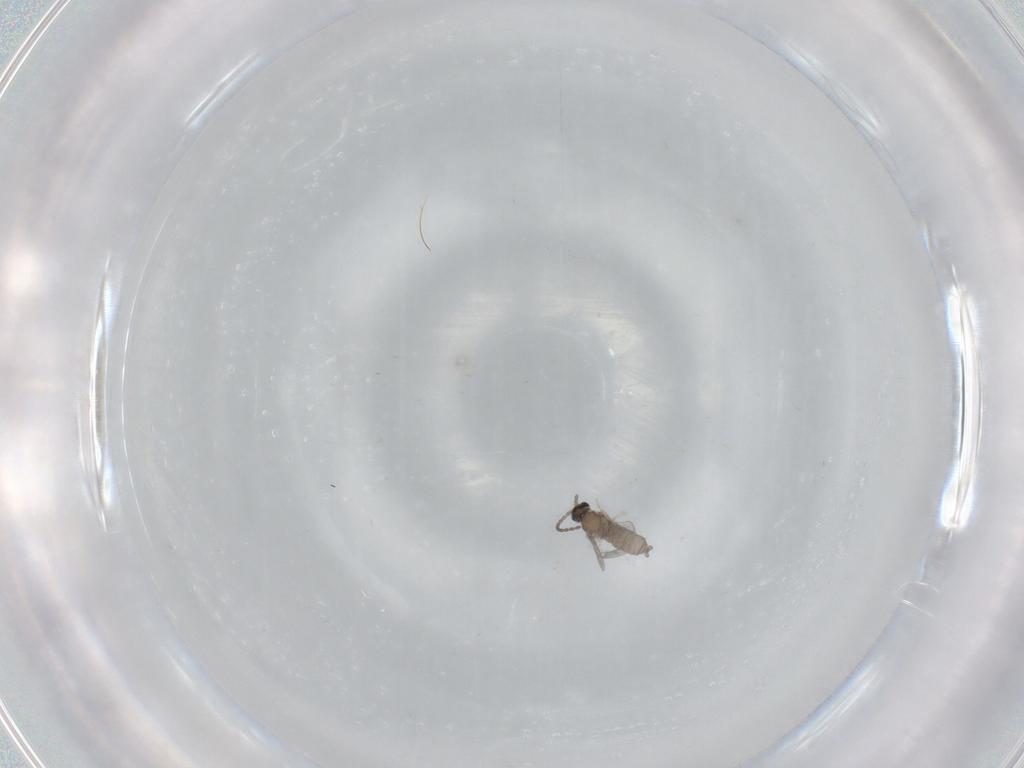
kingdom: Animalia
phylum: Arthropoda
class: Insecta
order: Diptera
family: Cecidomyiidae
